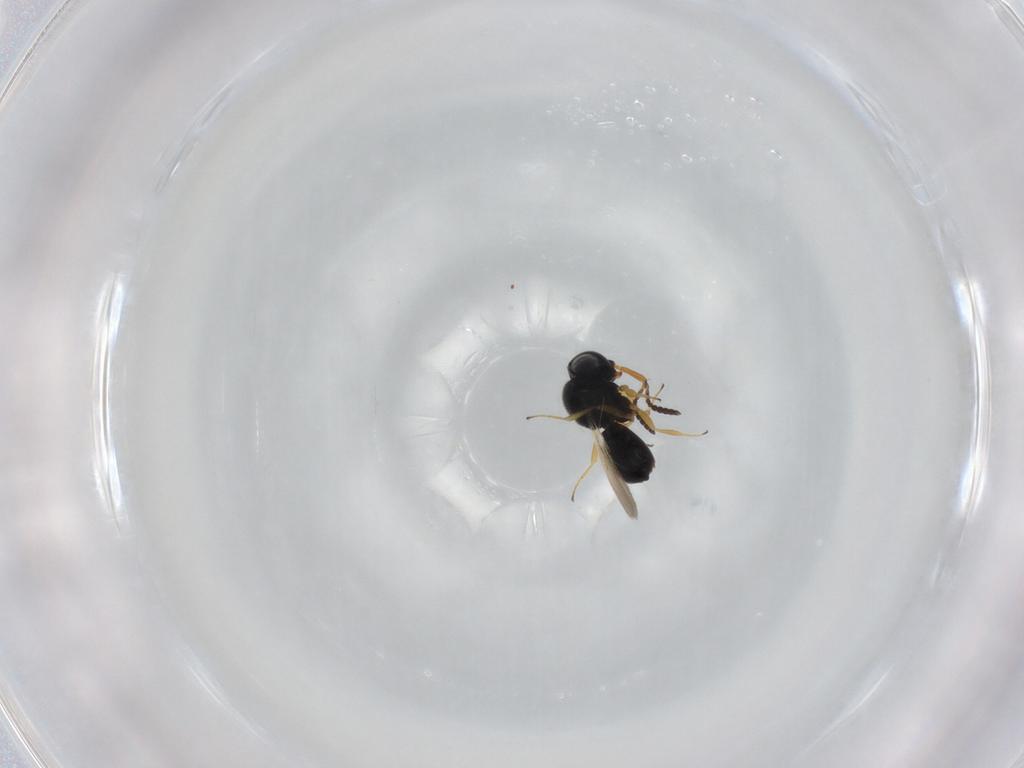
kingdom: Animalia
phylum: Arthropoda
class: Insecta
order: Hymenoptera
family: Scelionidae
